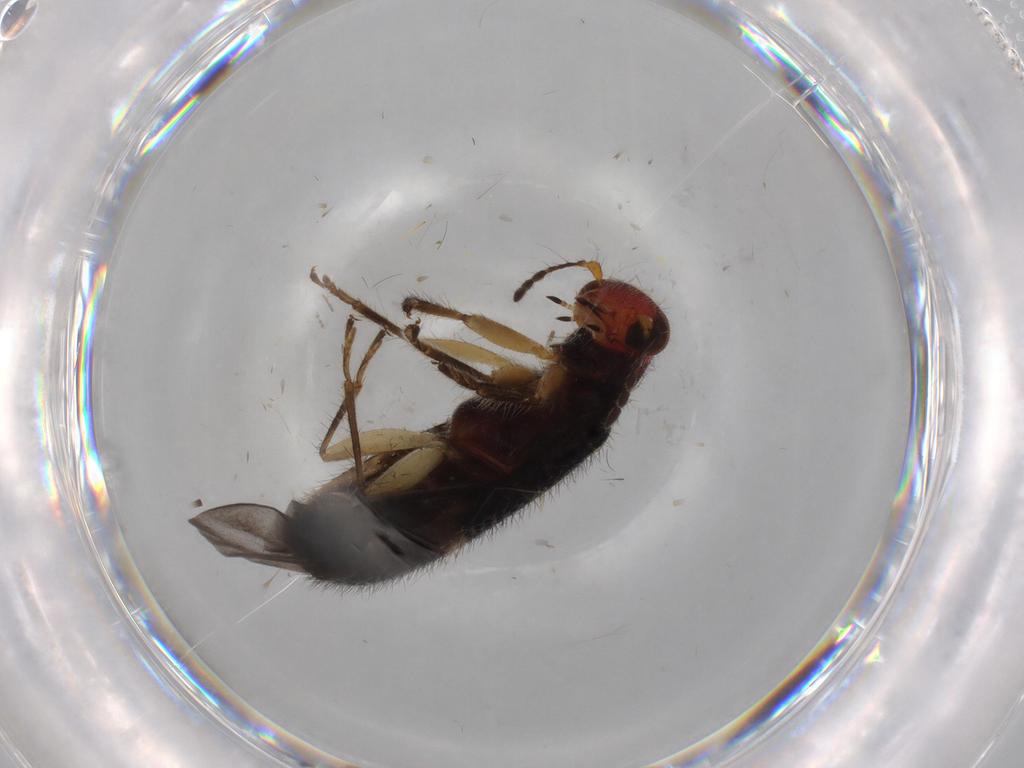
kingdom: Animalia
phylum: Arthropoda
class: Insecta
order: Coleoptera
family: Cleridae
